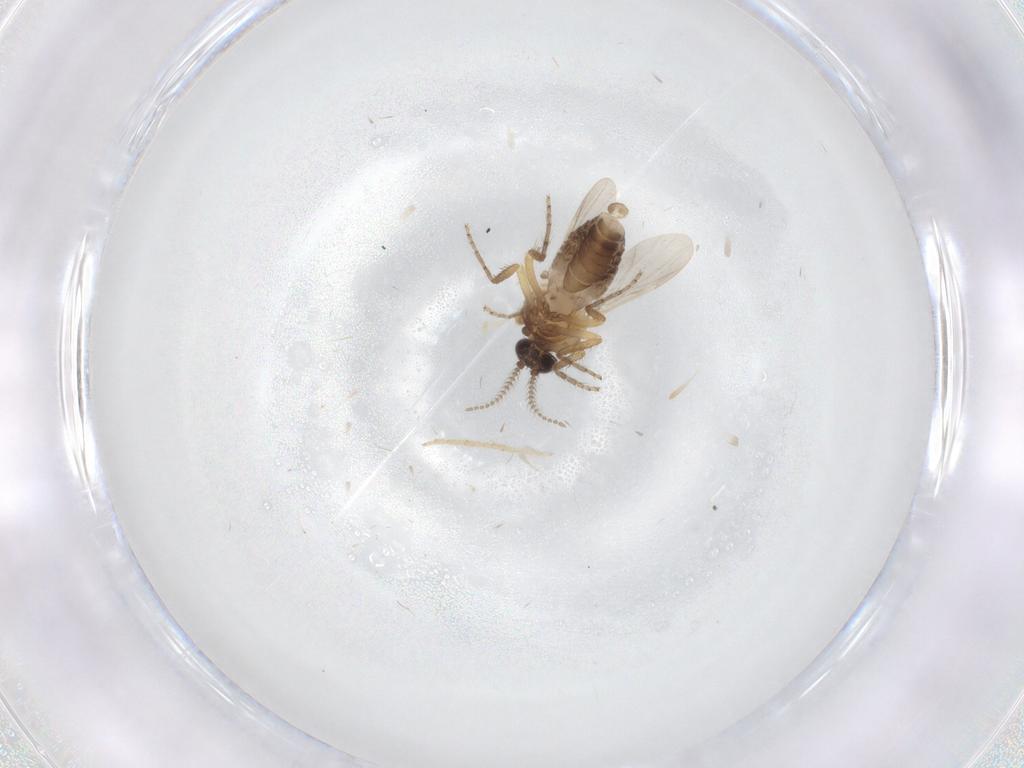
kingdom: Animalia
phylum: Arthropoda
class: Insecta
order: Diptera
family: Ceratopogonidae
